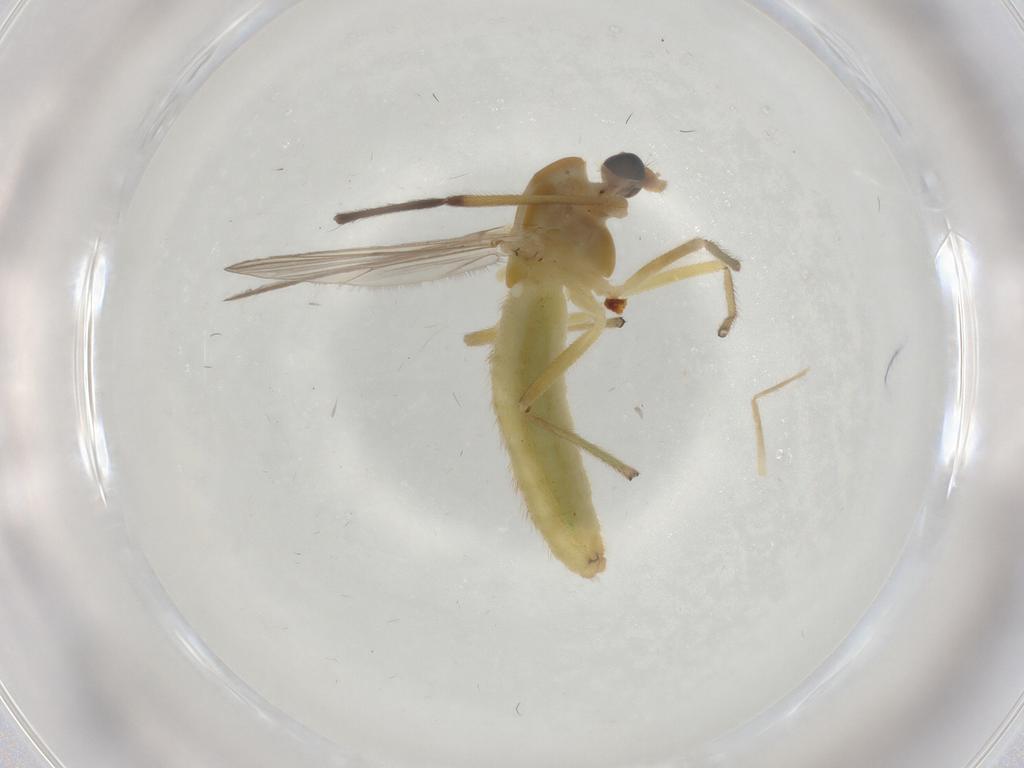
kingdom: Animalia
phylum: Arthropoda
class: Insecta
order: Diptera
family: Chironomidae
